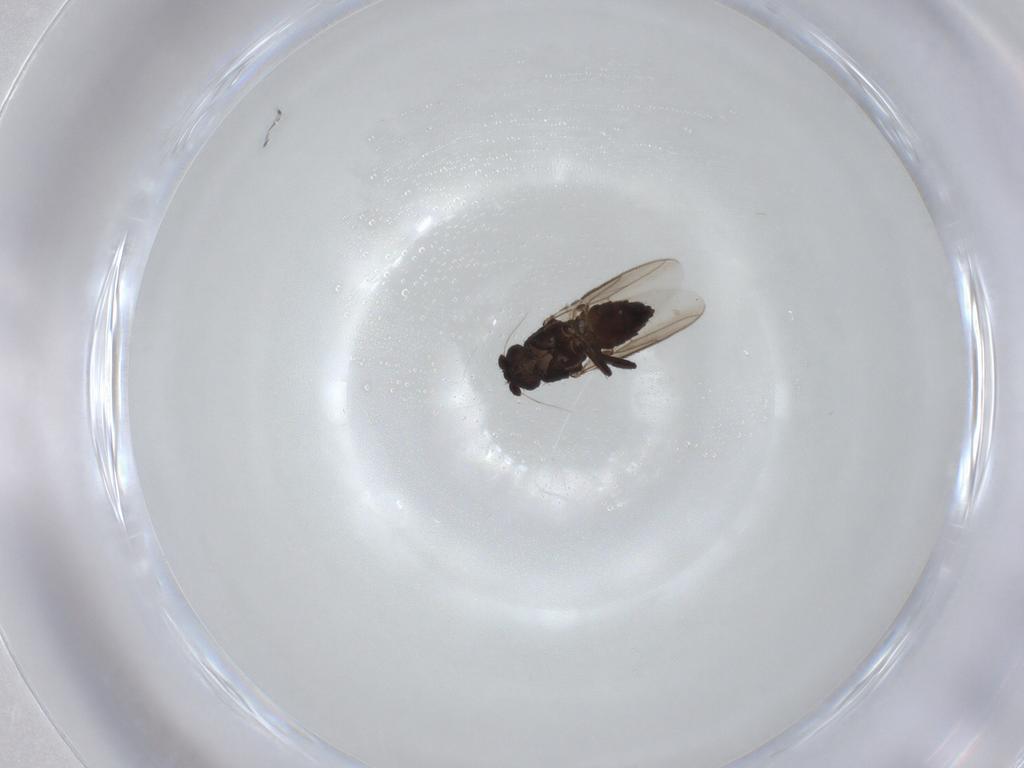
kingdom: Animalia
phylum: Arthropoda
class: Insecta
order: Diptera
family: Sphaeroceridae
